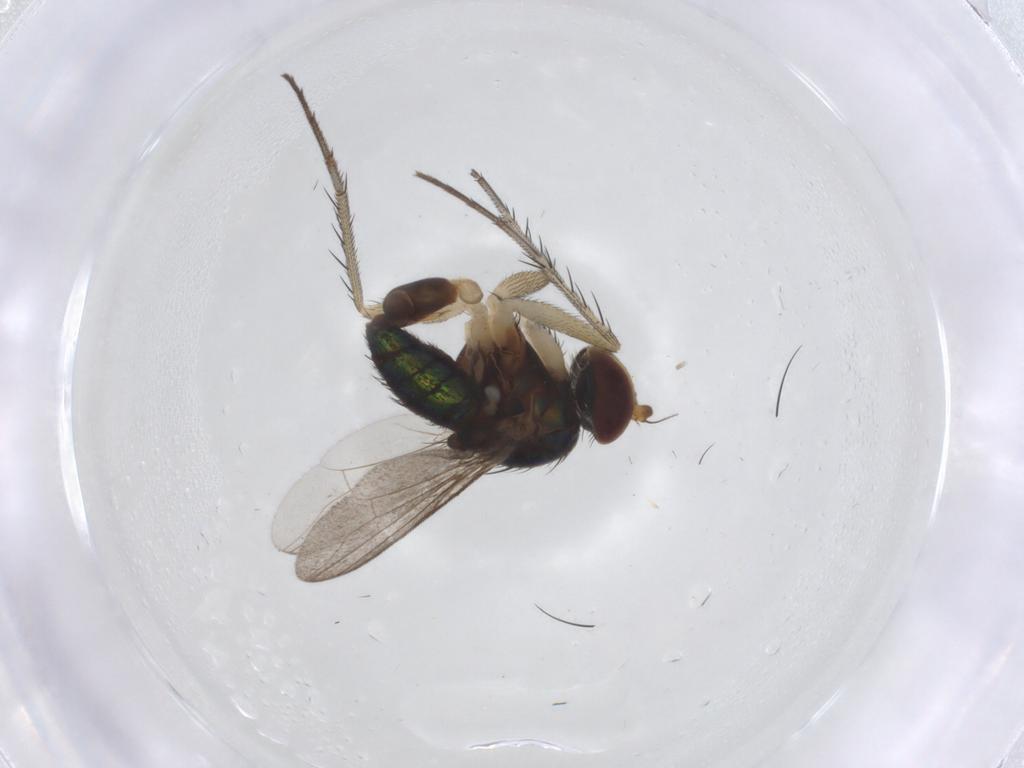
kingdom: Animalia
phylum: Arthropoda
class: Insecta
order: Diptera
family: Dolichopodidae
